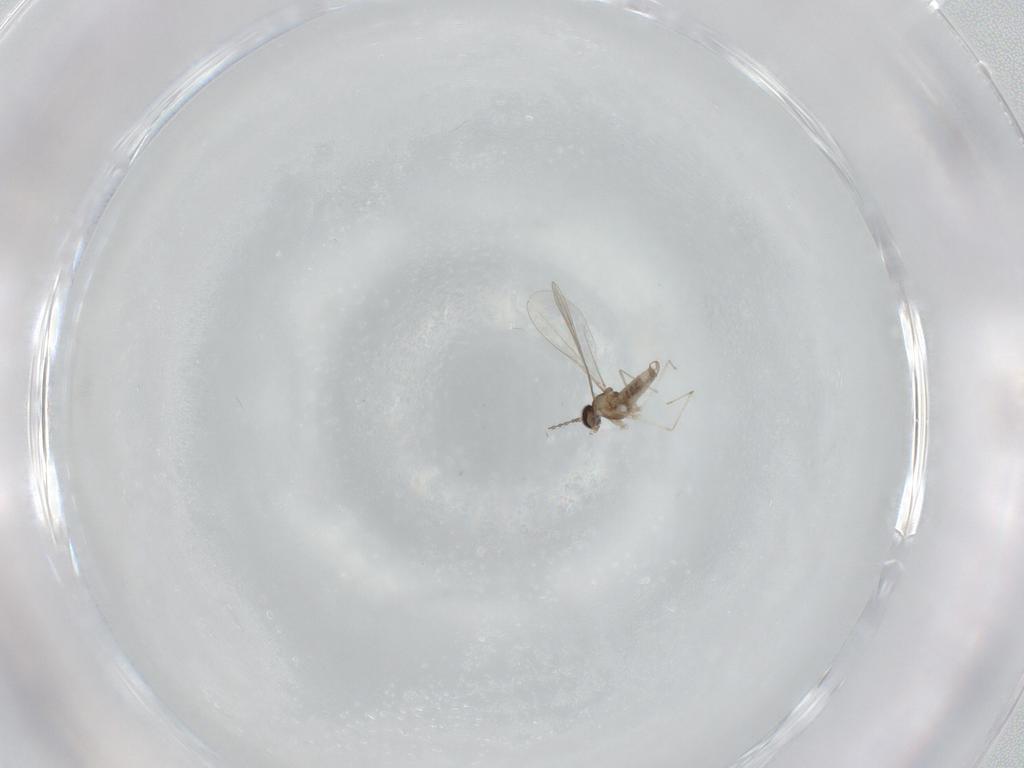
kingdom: Animalia
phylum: Arthropoda
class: Insecta
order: Diptera
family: Cecidomyiidae
